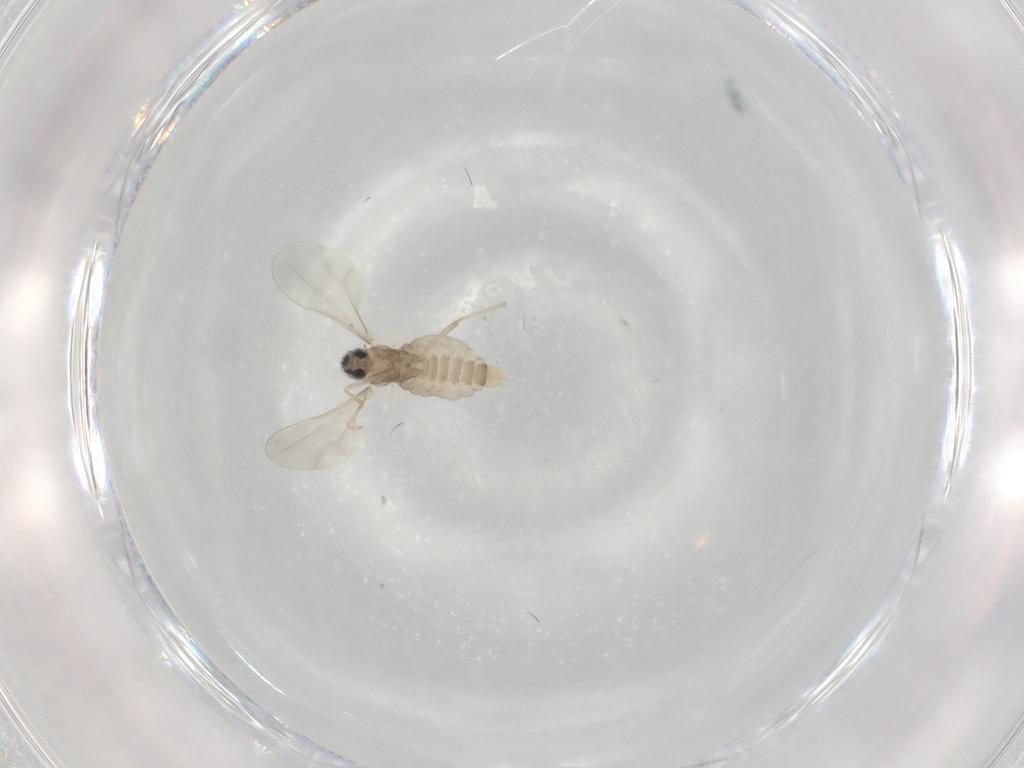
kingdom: Animalia
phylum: Arthropoda
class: Insecta
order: Diptera
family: Cecidomyiidae
